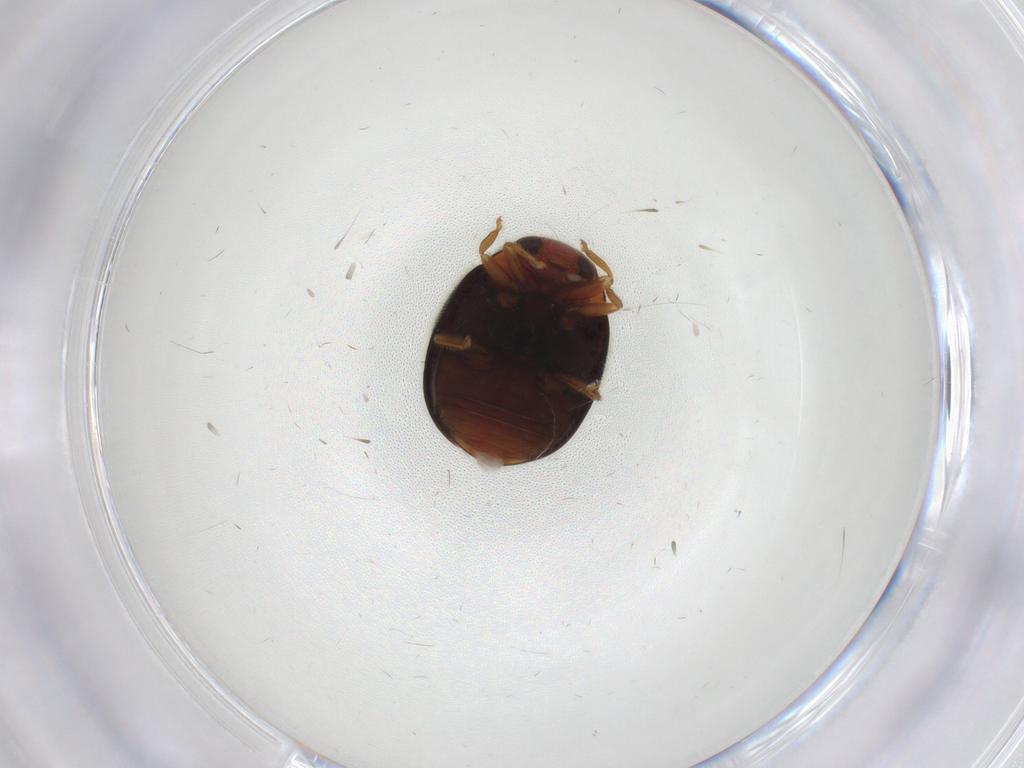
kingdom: Animalia
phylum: Arthropoda
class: Insecta
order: Coleoptera
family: Coccinellidae
